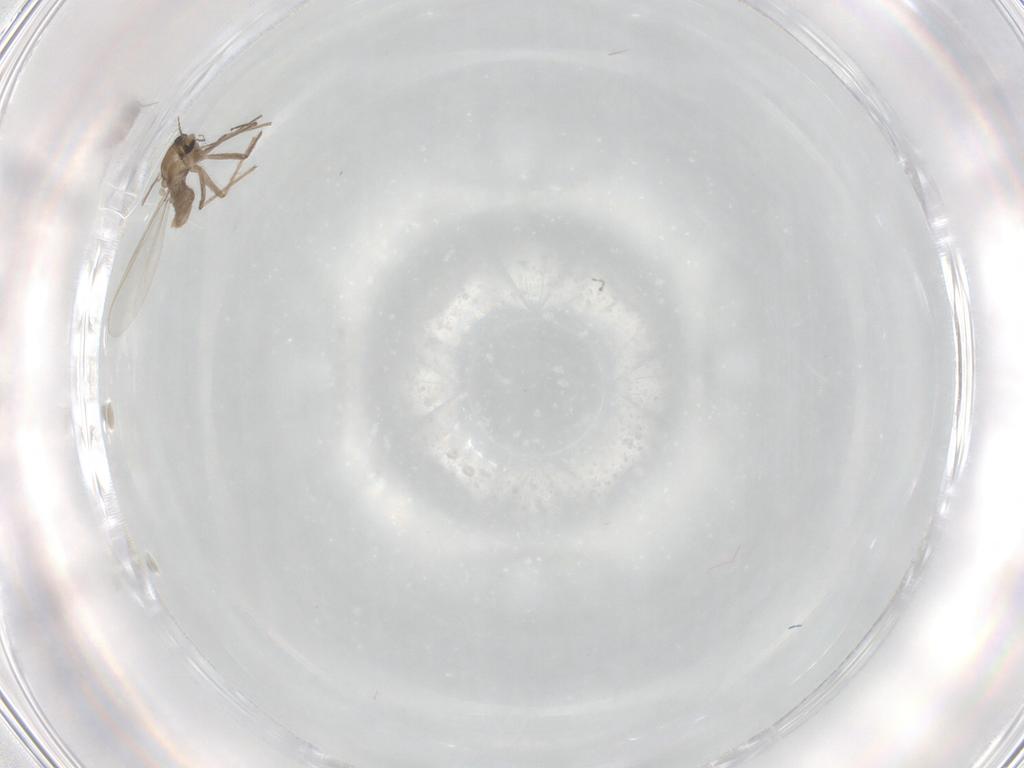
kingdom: Animalia
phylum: Arthropoda
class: Insecta
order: Diptera
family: Chironomidae
